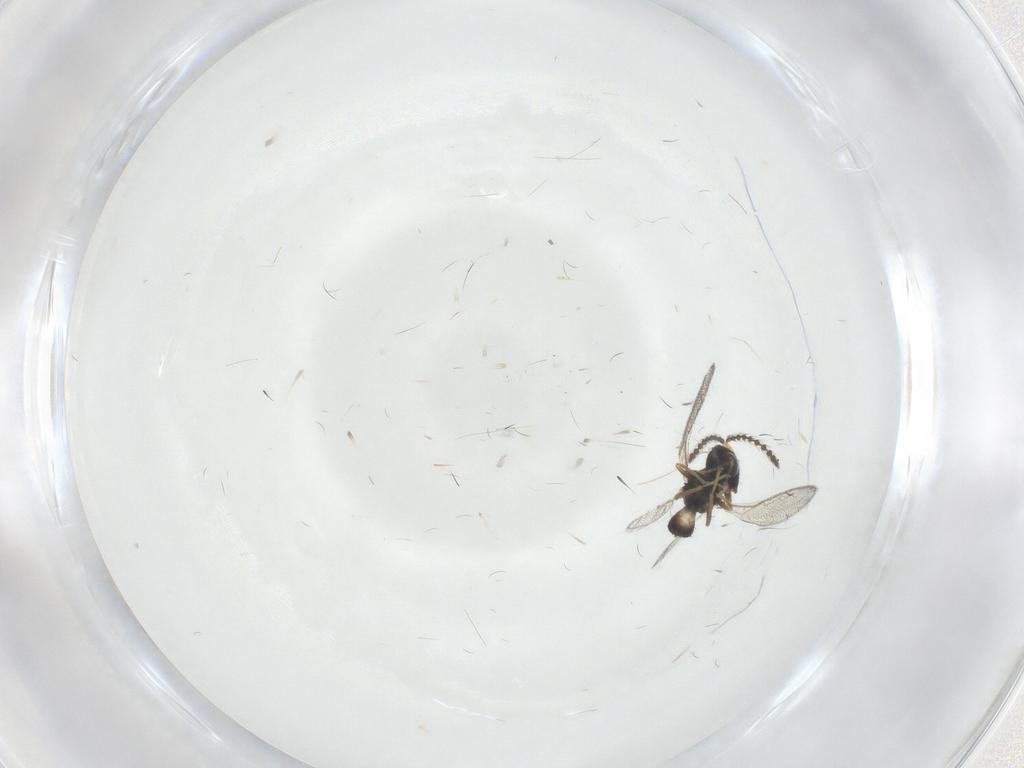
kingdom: Animalia
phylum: Arthropoda
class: Insecta
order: Hymenoptera
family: Pteromalidae
